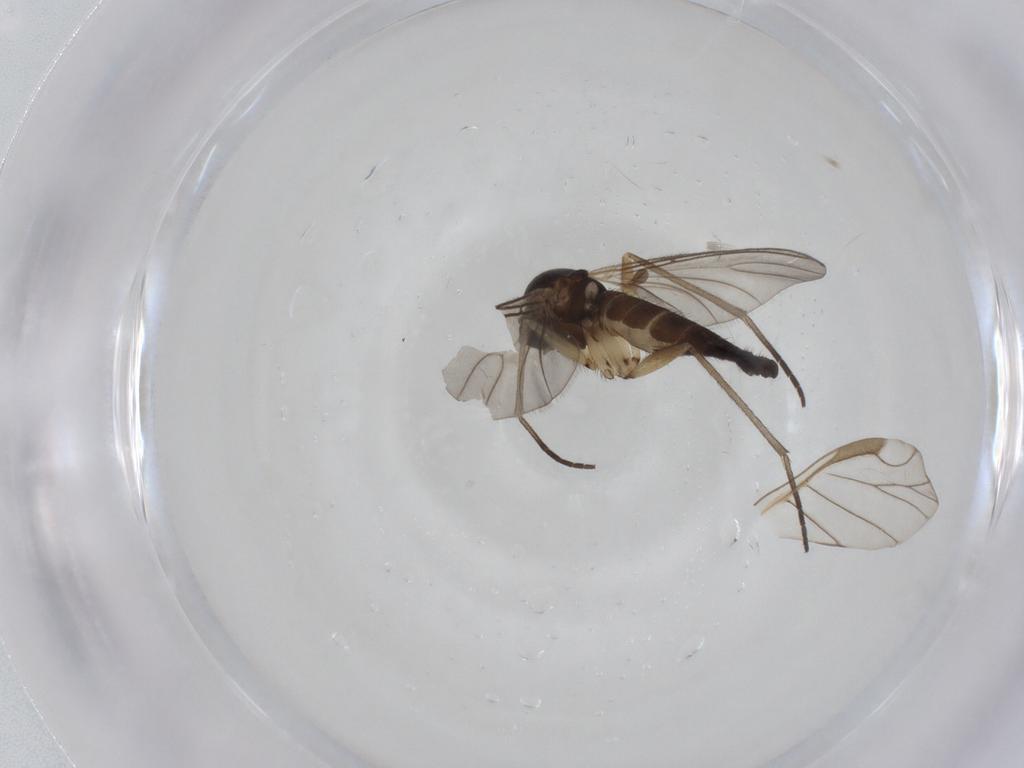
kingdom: Animalia
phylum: Arthropoda
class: Insecta
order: Diptera
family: Sciaridae
